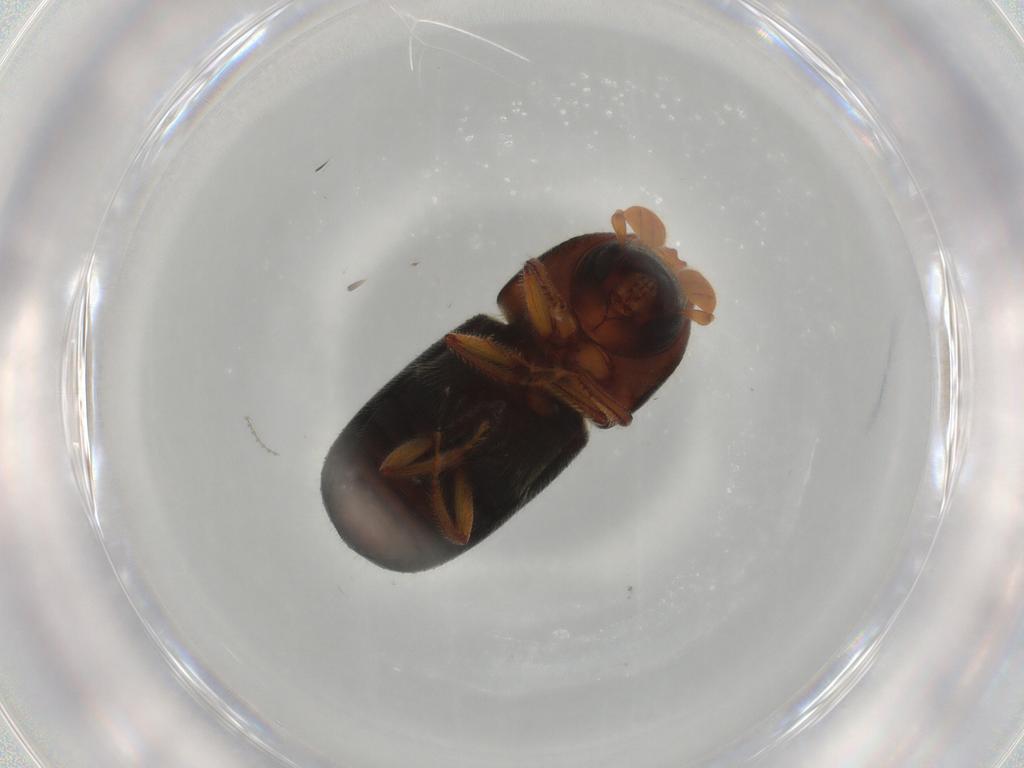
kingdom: Animalia
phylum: Arthropoda
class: Insecta
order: Coleoptera
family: Curculionidae
